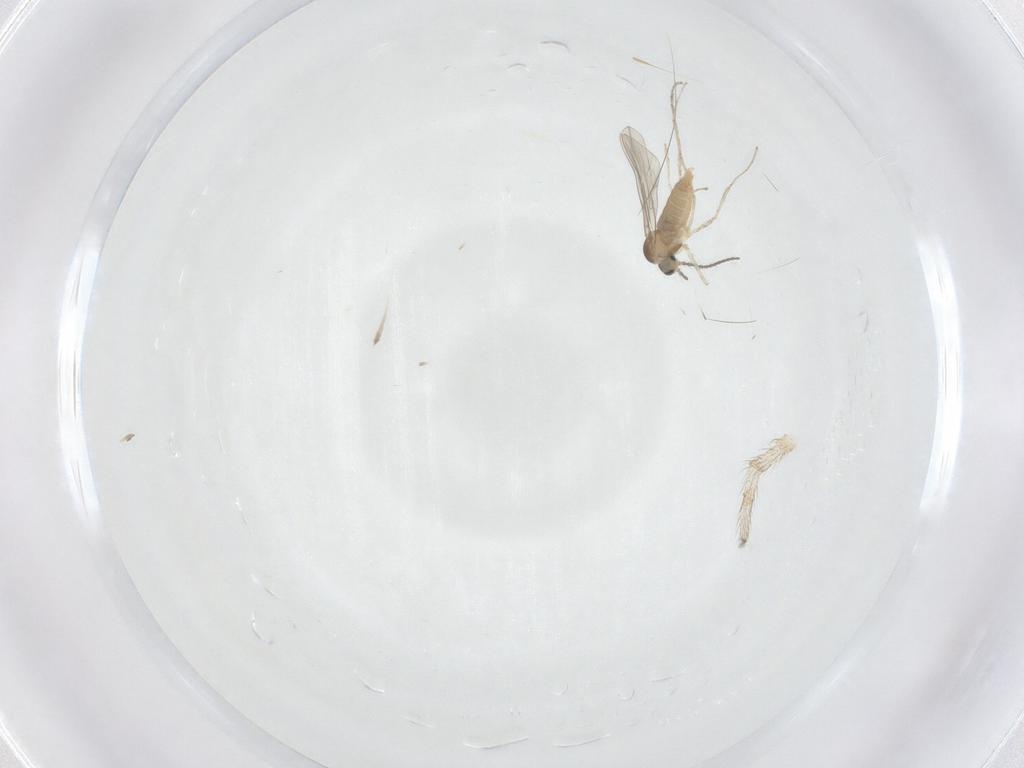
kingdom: Animalia
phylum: Arthropoda
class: Insecta
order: Diptera
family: Cecidomyiidae
